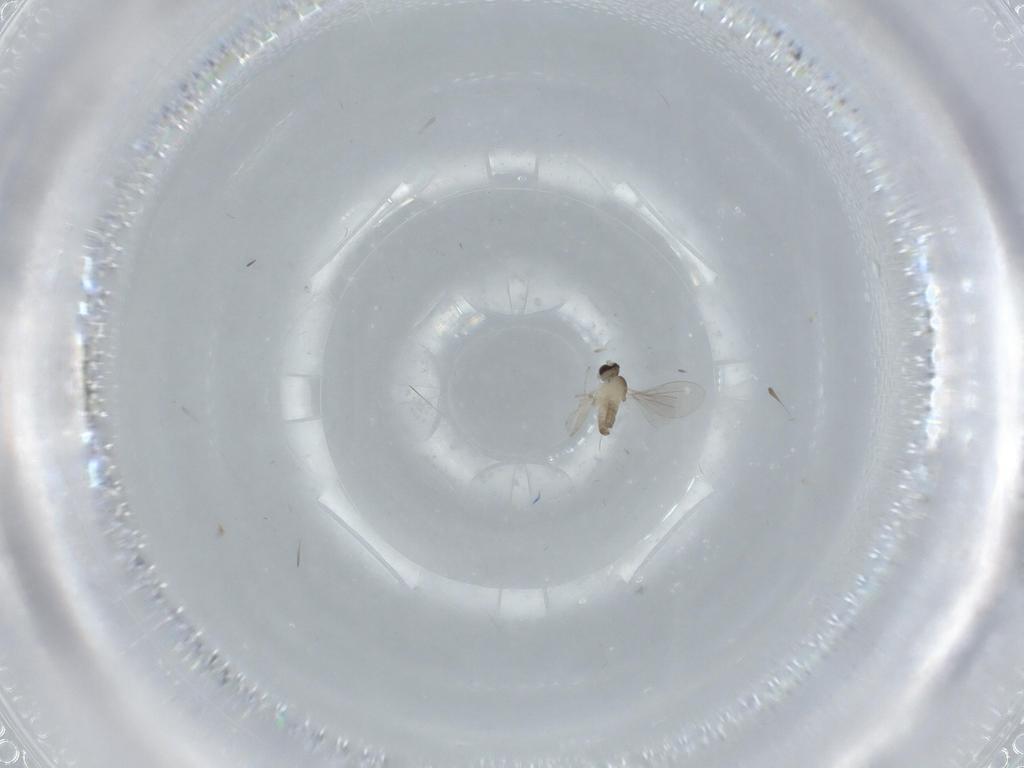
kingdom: Animalia
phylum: Arthropoda
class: Insecta
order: Diptera
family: Cecidomyiidae
